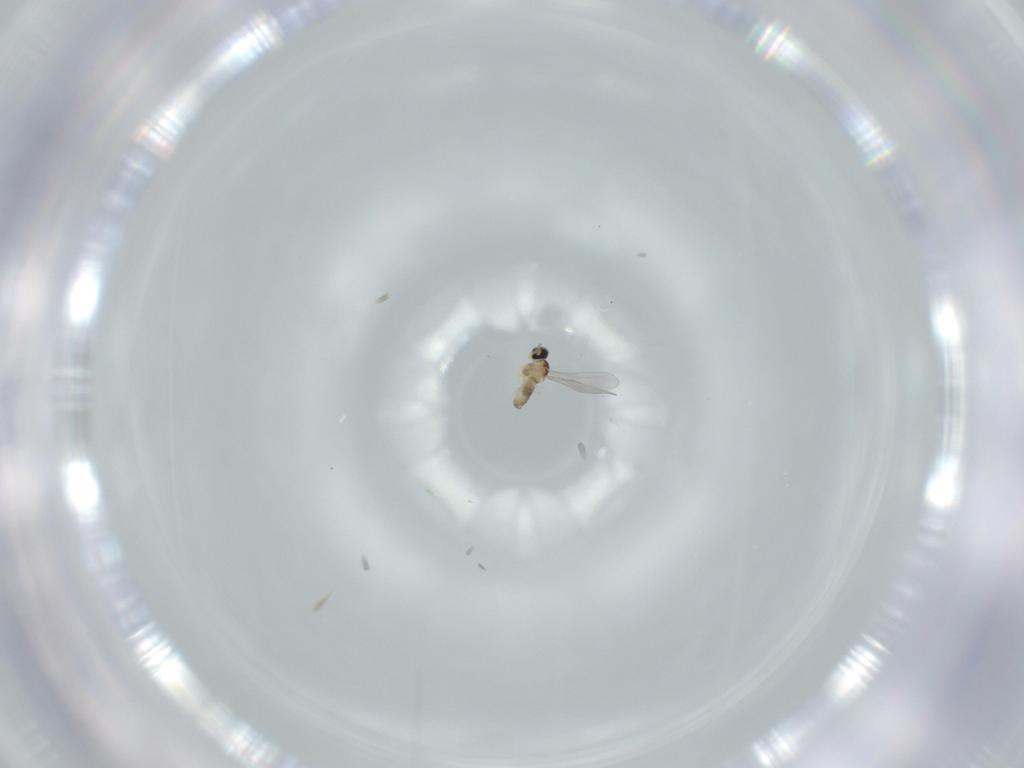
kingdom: Animalia
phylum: Arthropoda
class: Insecta
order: Diptera
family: Cecidomyiidae
